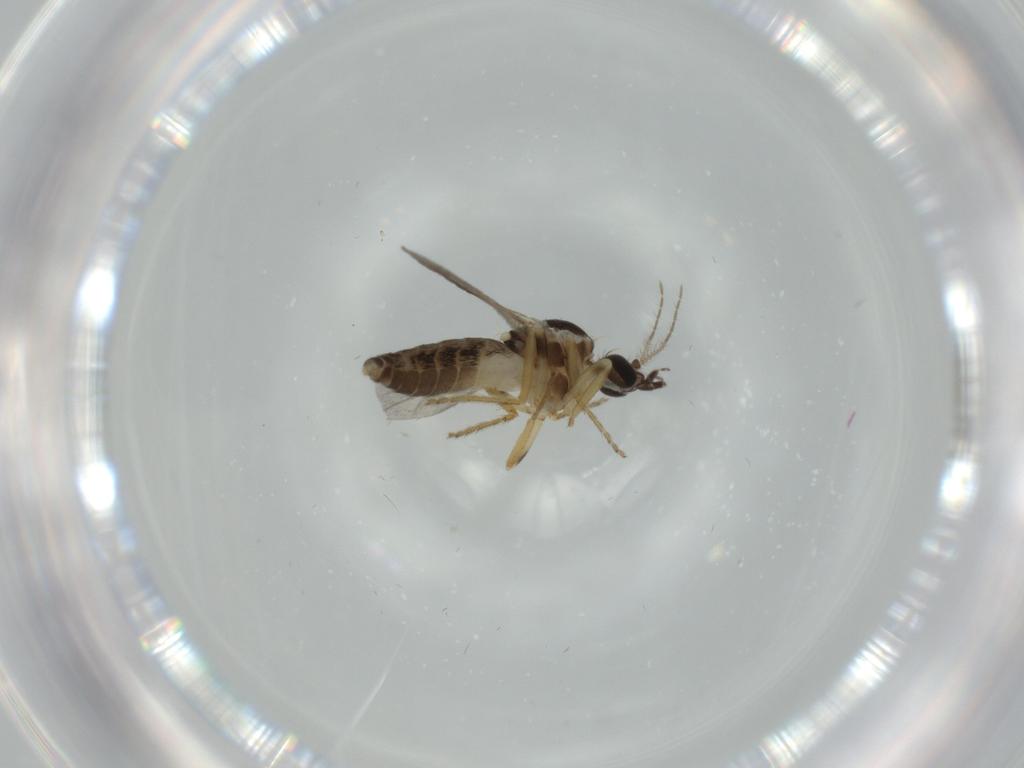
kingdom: Animalia
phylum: Arthropoda
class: Insecta
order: Diptera
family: Ceratopogonidae
